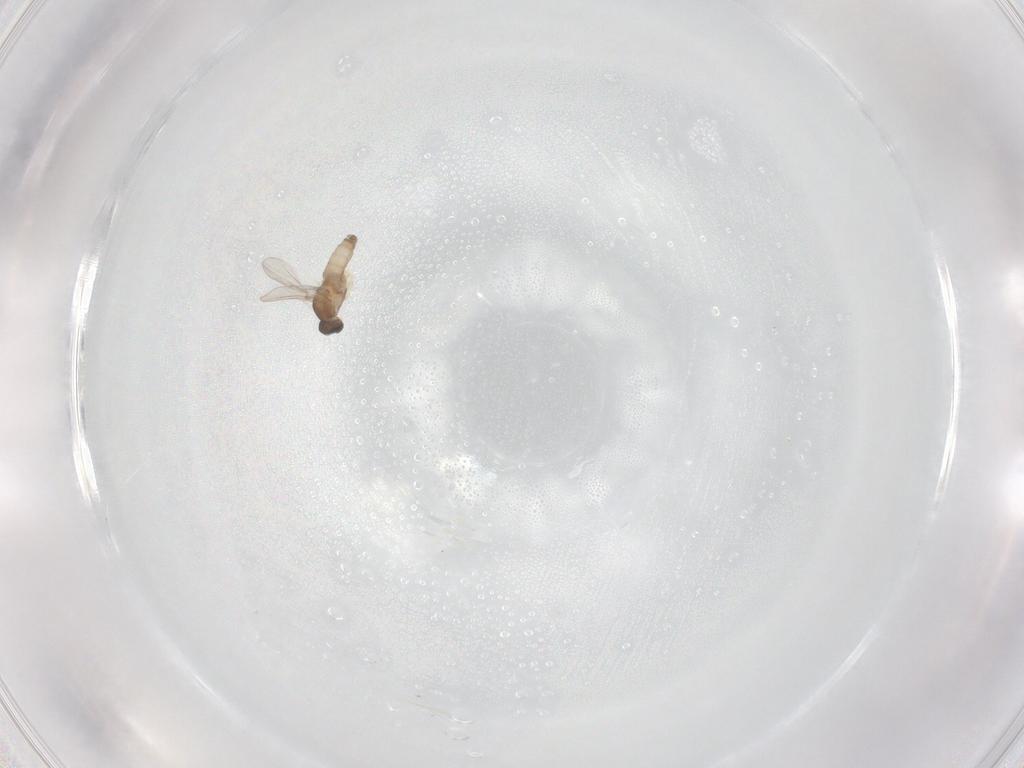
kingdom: Animalia
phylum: Arthropoda
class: Insecta
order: Diptera
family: Cecidomyiidae
